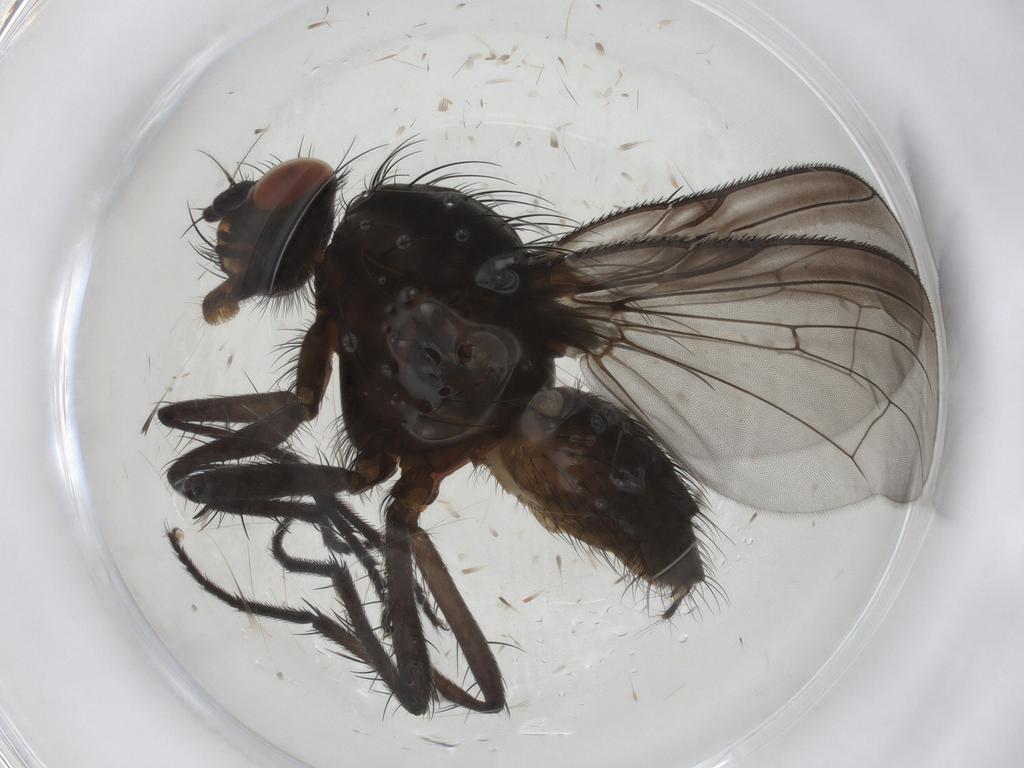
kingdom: Animalia
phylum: Arthropoda
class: Insecta
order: Diptera
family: Anthomyiidae
